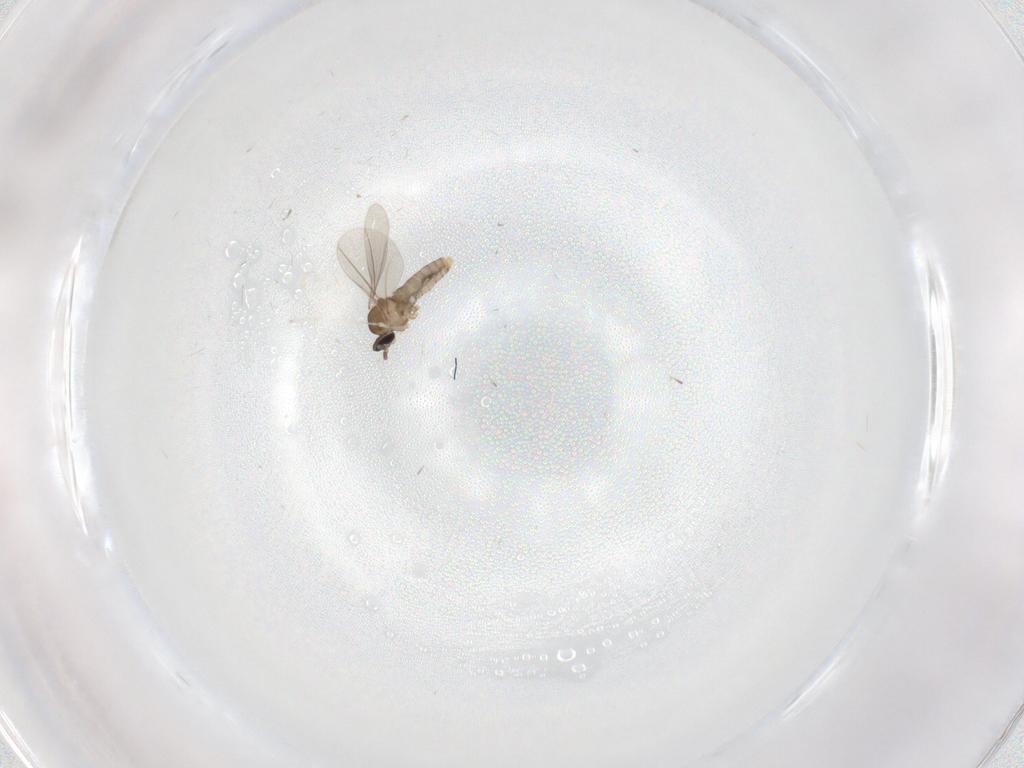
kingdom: Animalia
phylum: Arthropoda
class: Insecta
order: Diptera
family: Cecidomyiidae
